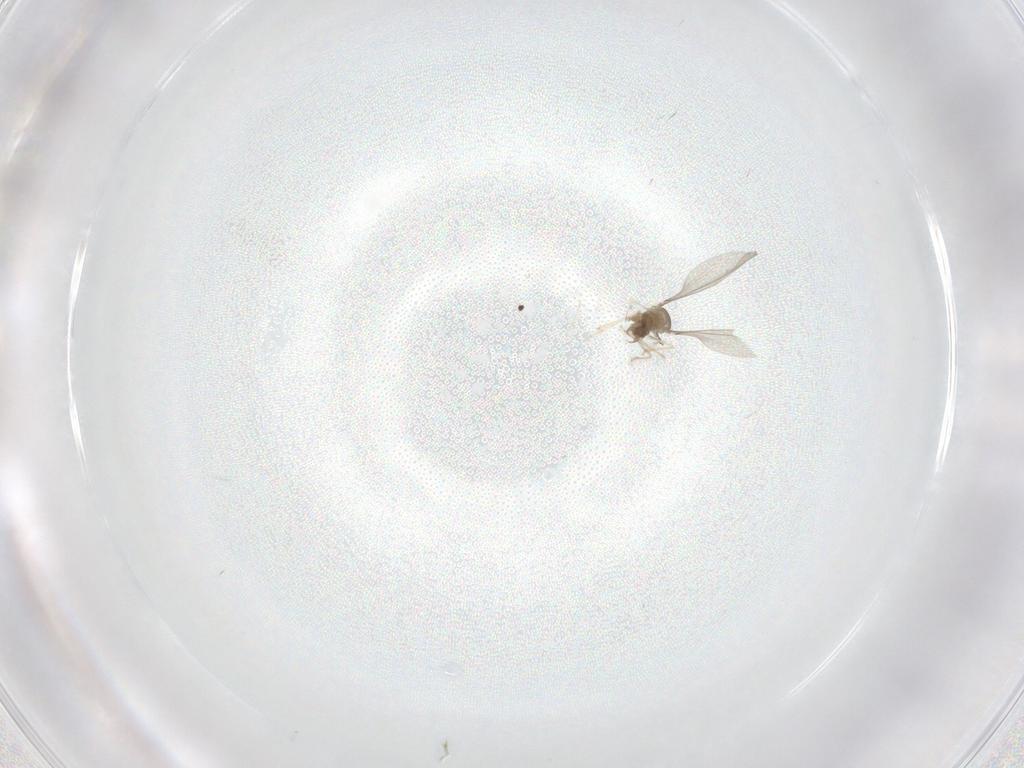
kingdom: Animalia
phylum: Arthropoda
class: Insecta
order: Diptera
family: Cecidomyiidae
